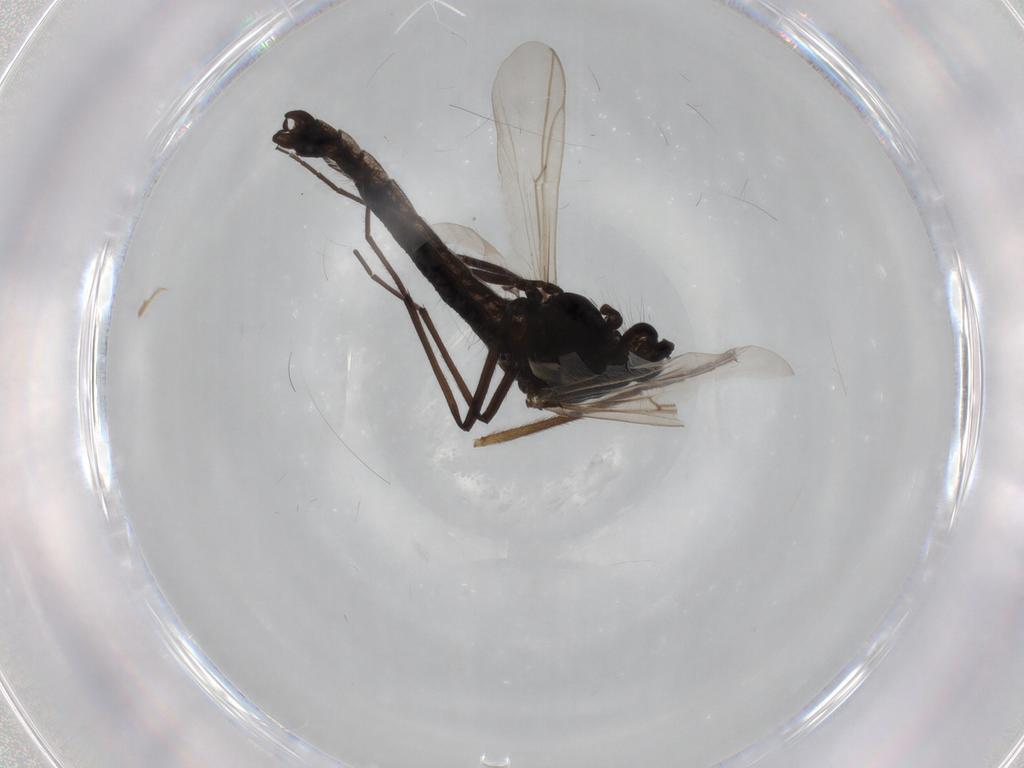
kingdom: Animalia
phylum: Arthropoda
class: Insecta
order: Diptera
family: Chironomidae
